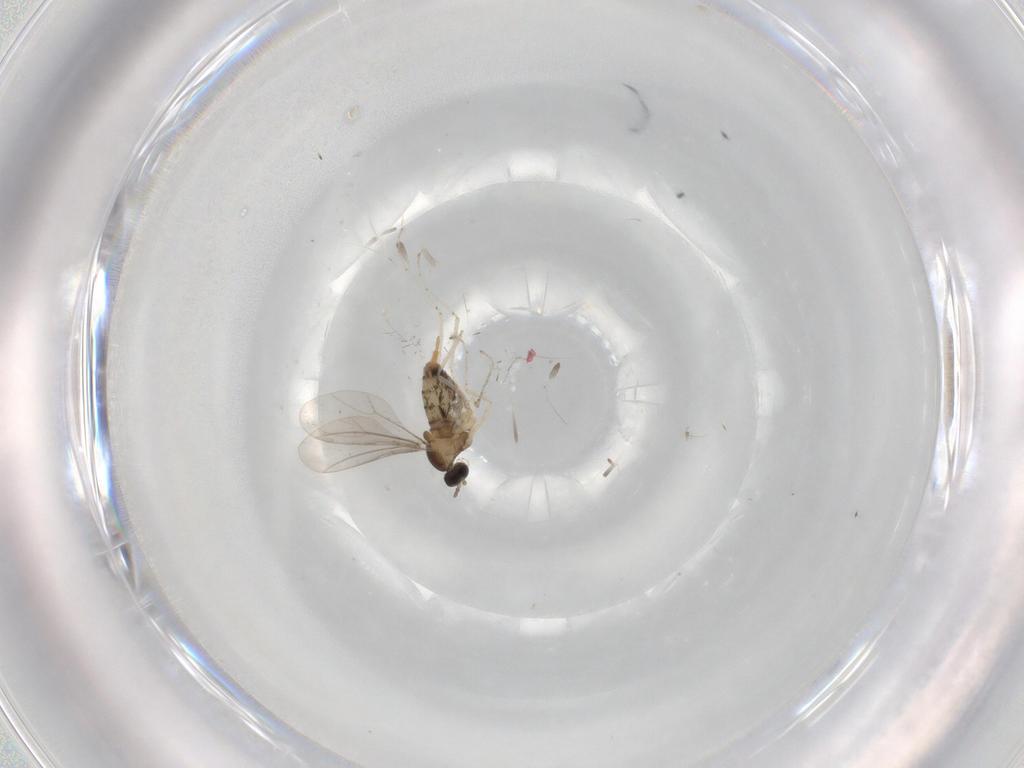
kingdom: Animalia
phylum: Arthropoda
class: Insecta
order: Diptera
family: Cecidomyiidae
